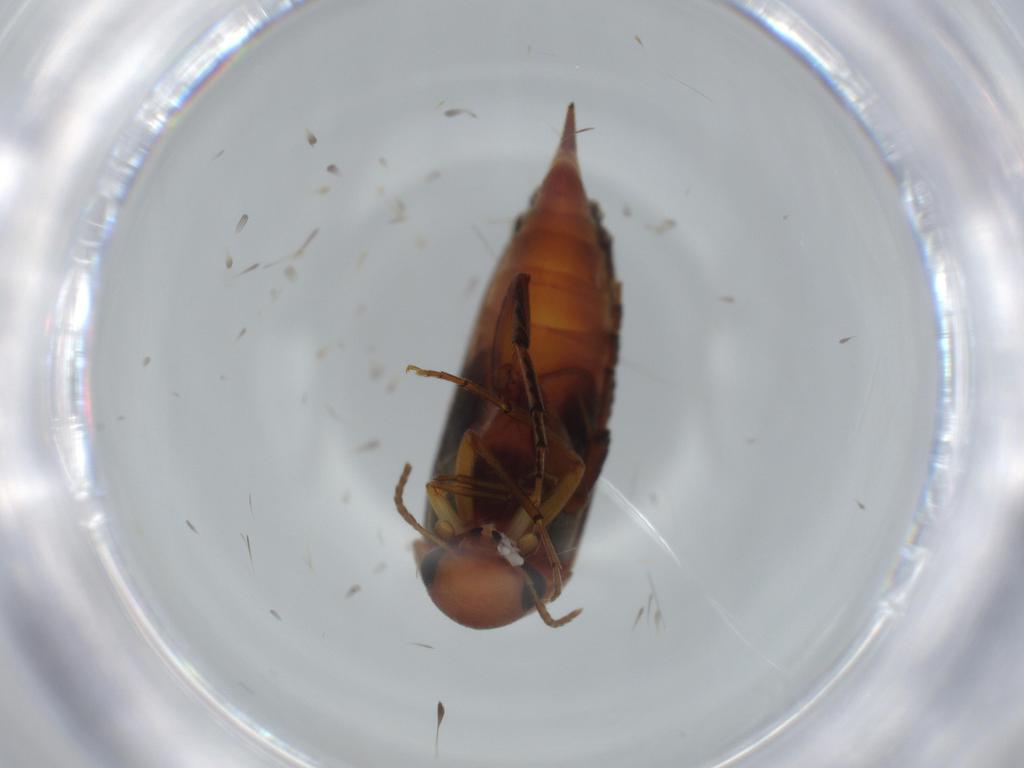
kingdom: Animalia
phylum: Arthropoda
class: Insecta
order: Coleoptera
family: Mordellidae
